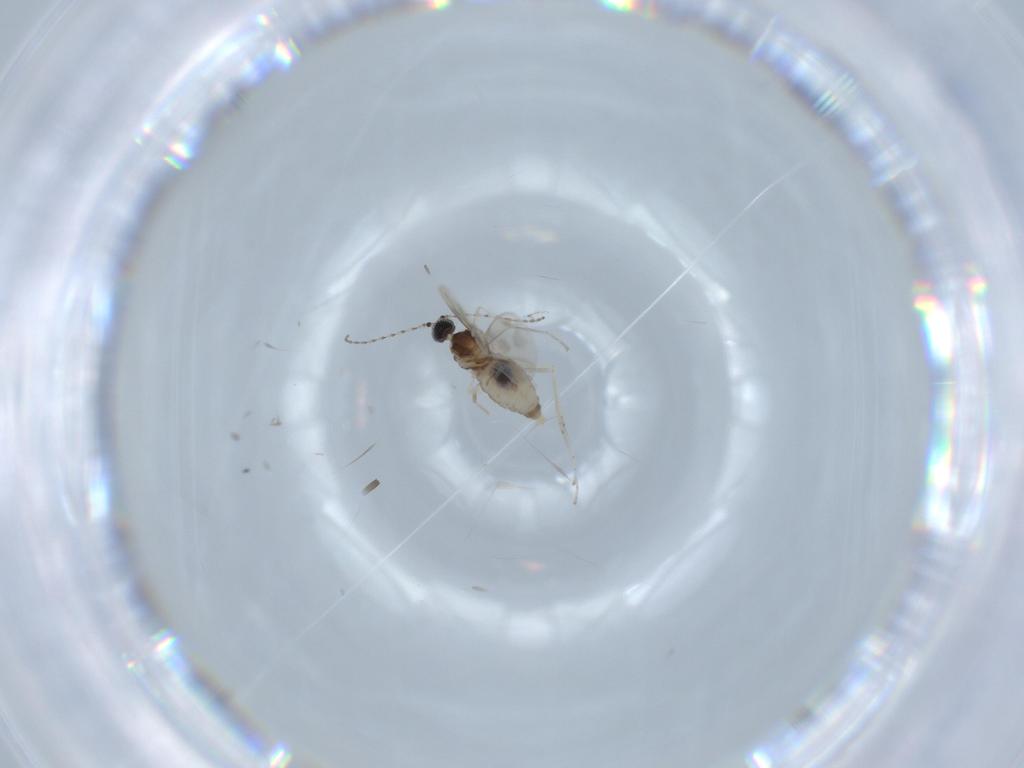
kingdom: Animalia
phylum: Arthropoda
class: Insecta
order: Diptera
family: Cecidomyiidae
